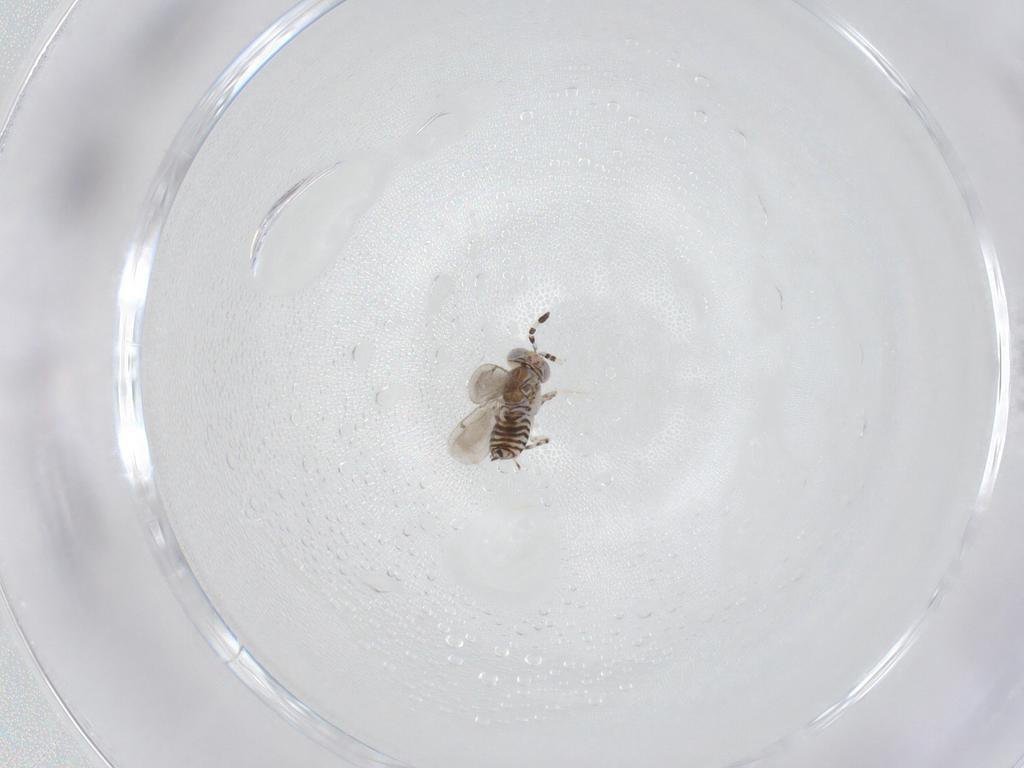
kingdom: Animalia
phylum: Arthropoda
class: Insecta
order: Hymenoptera
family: Aphelinidae
